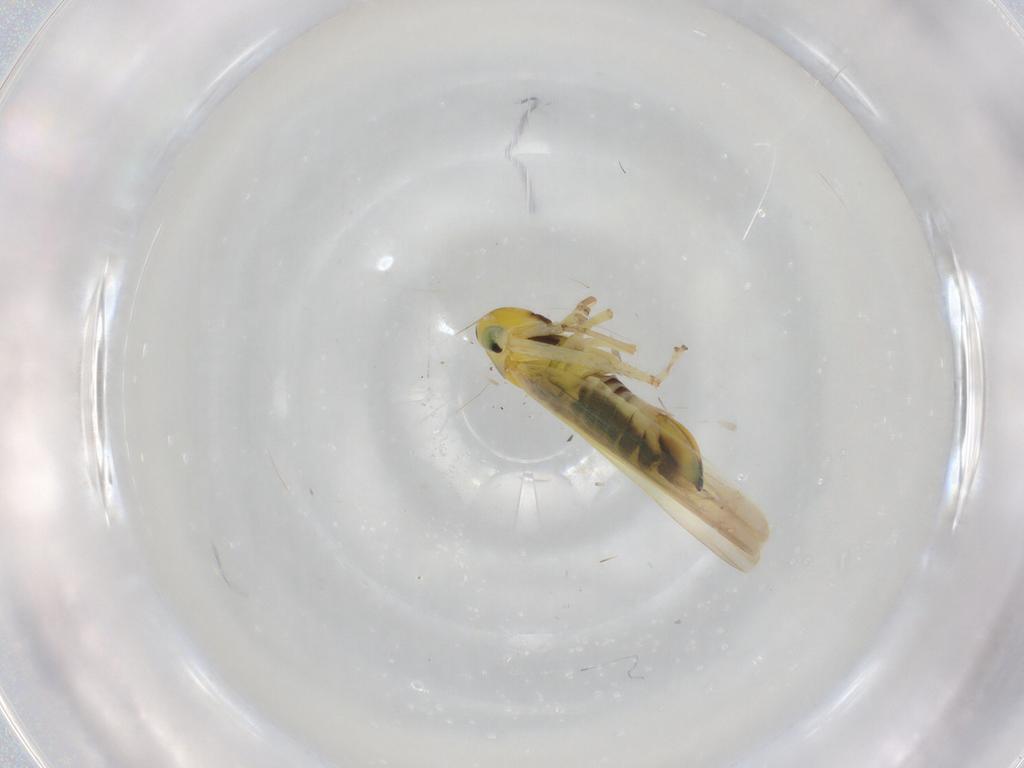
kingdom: Animalia
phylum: Arthropoda
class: Insecta
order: Hemiptera
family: Cicadellidae
